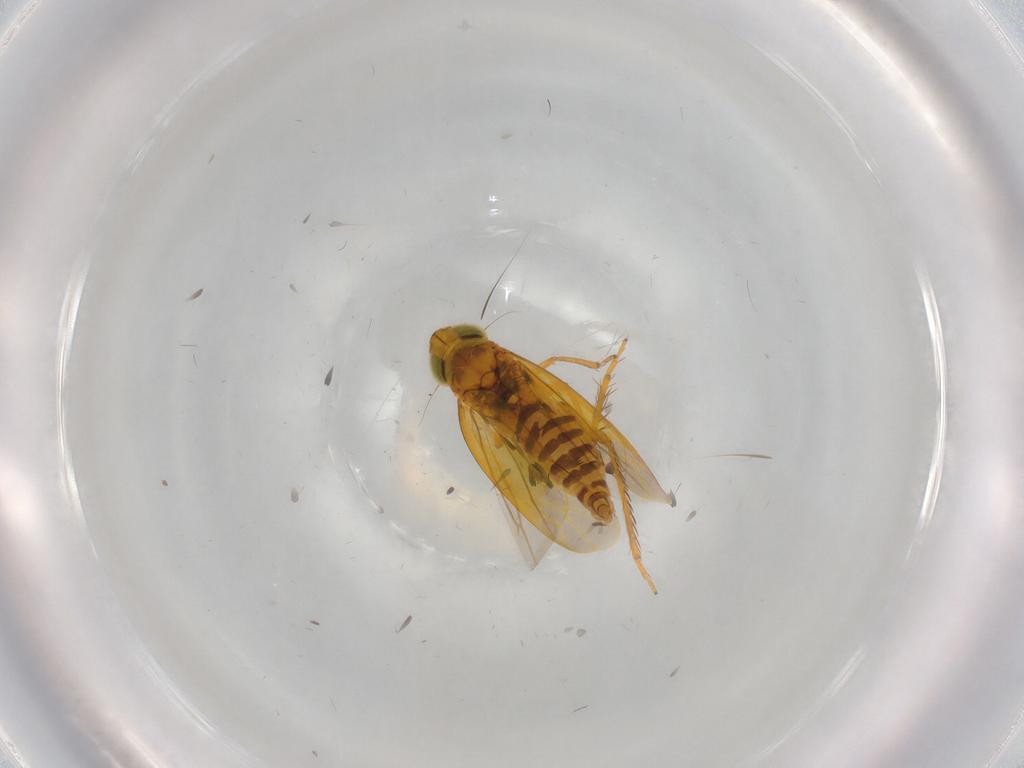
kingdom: Animalia
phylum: Arthropoda
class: Insecta
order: Hemiptera
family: Cicadellidae
